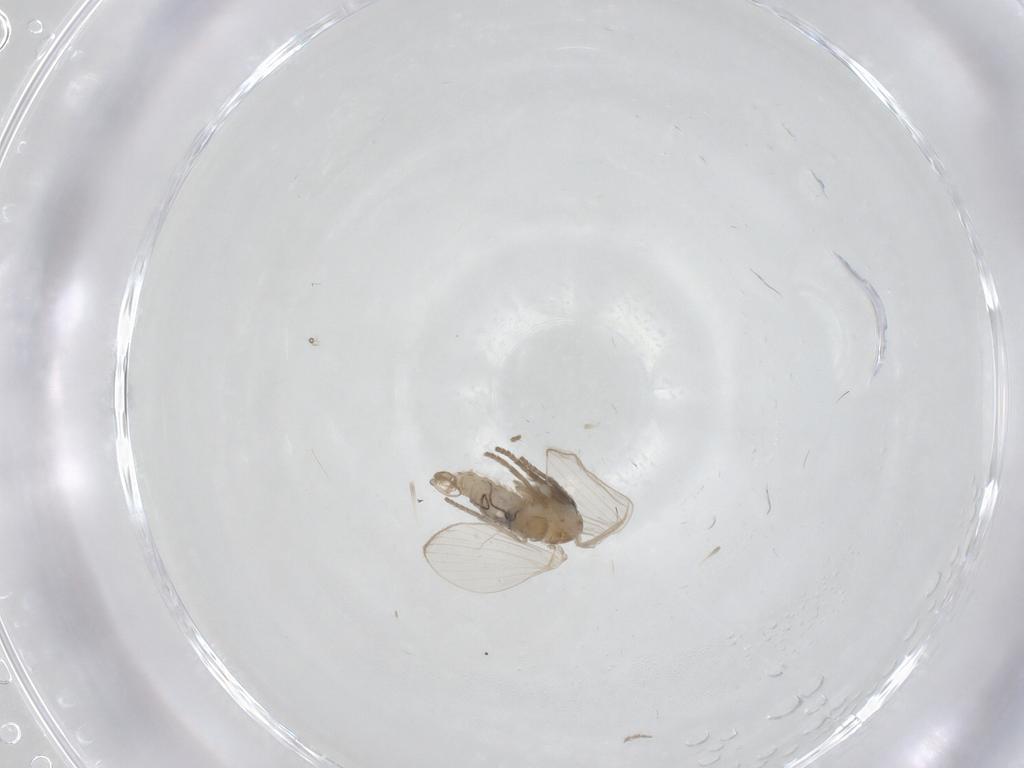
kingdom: Animalia
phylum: Arthropoda
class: Insecta
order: Diptera
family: Psychodidae
